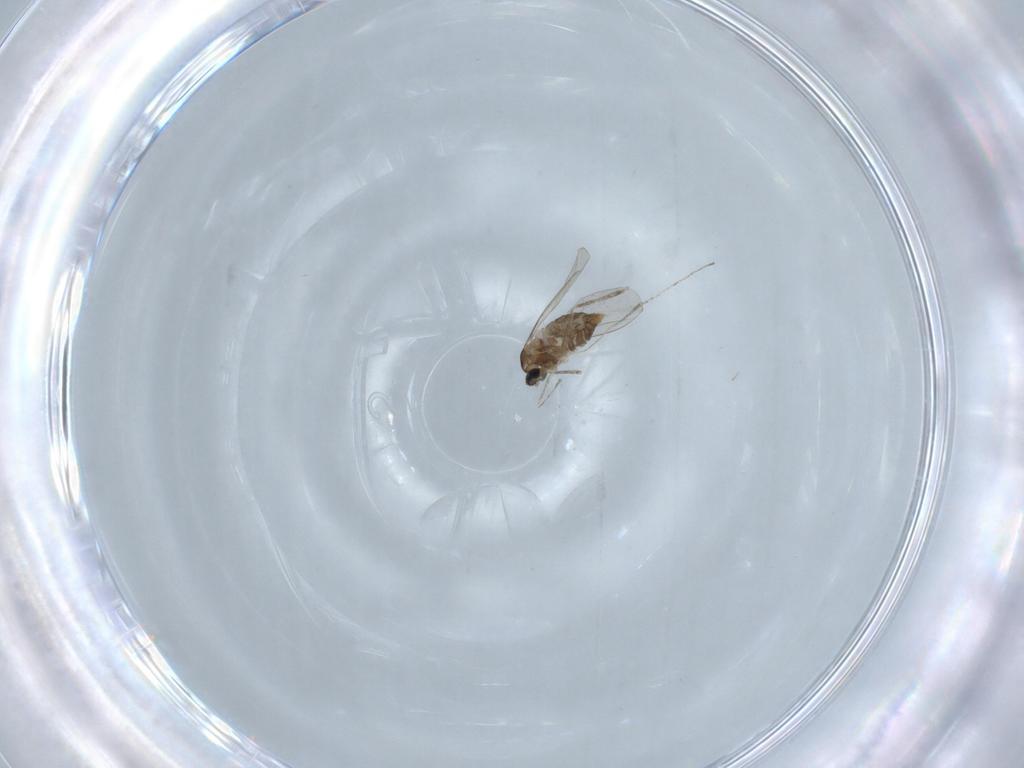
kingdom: Animalia
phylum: Arthropoda
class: Insecta
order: Diptera
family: Cecidomyiidae
